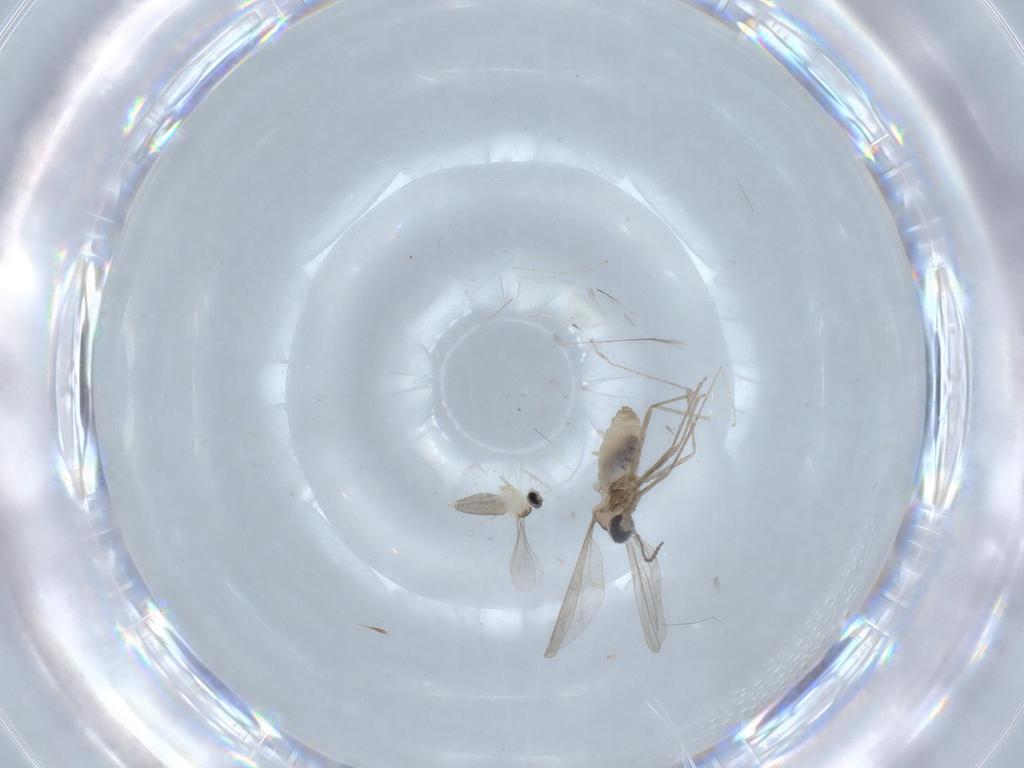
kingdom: Animalia
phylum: Arthropoda
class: Insecta
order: Diptera
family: Cecidomyiidae
